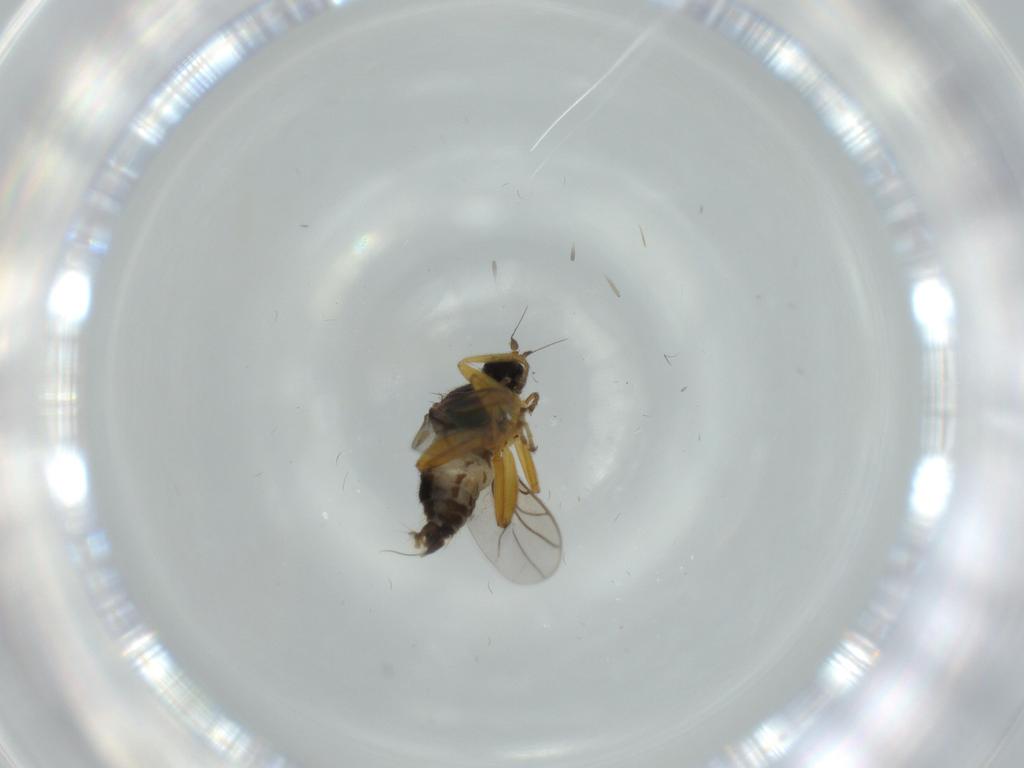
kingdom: Animalia
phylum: Arthropoda
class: Insecta
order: Diptera
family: Hybotidae
